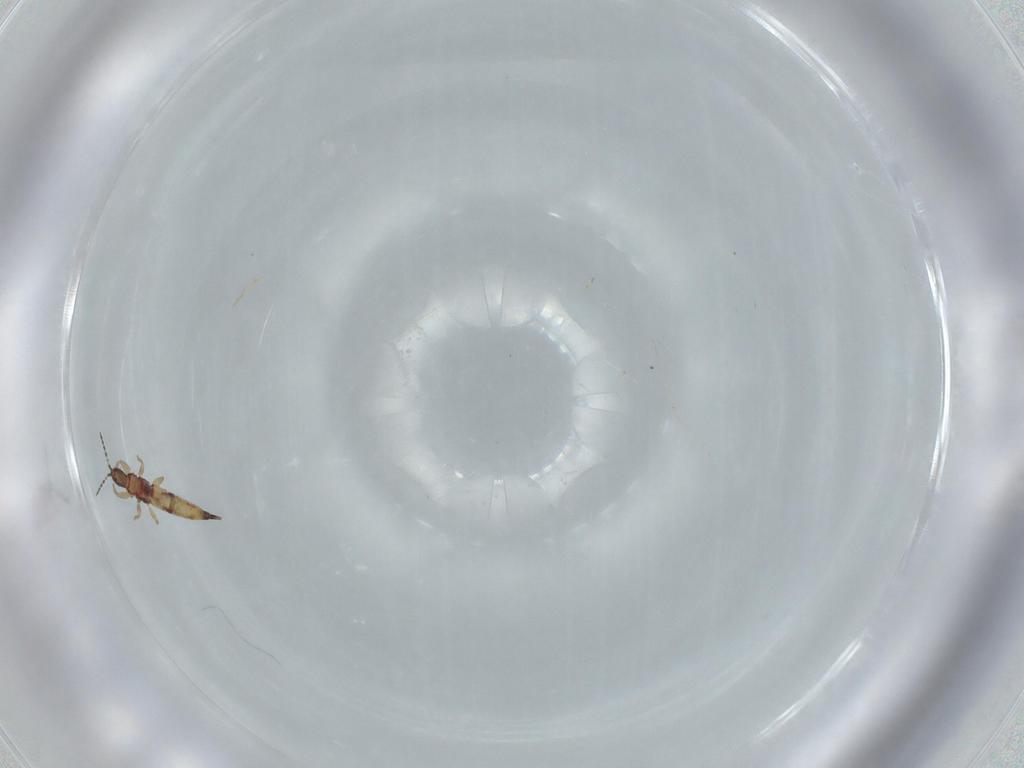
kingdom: Animalia
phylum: Arthropoda
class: Insecta
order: Thysanoptera
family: Phlaeothripidae
